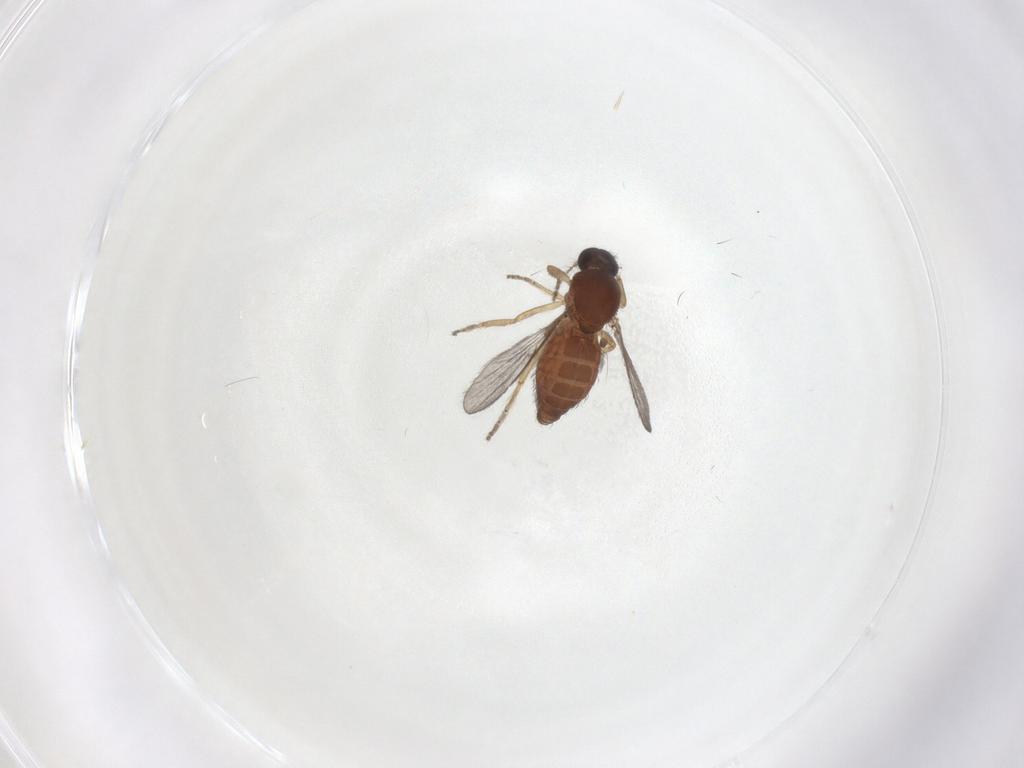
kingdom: Animalia
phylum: Arthropoda
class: Insecta
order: Diptera
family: Ceratopogonidae
